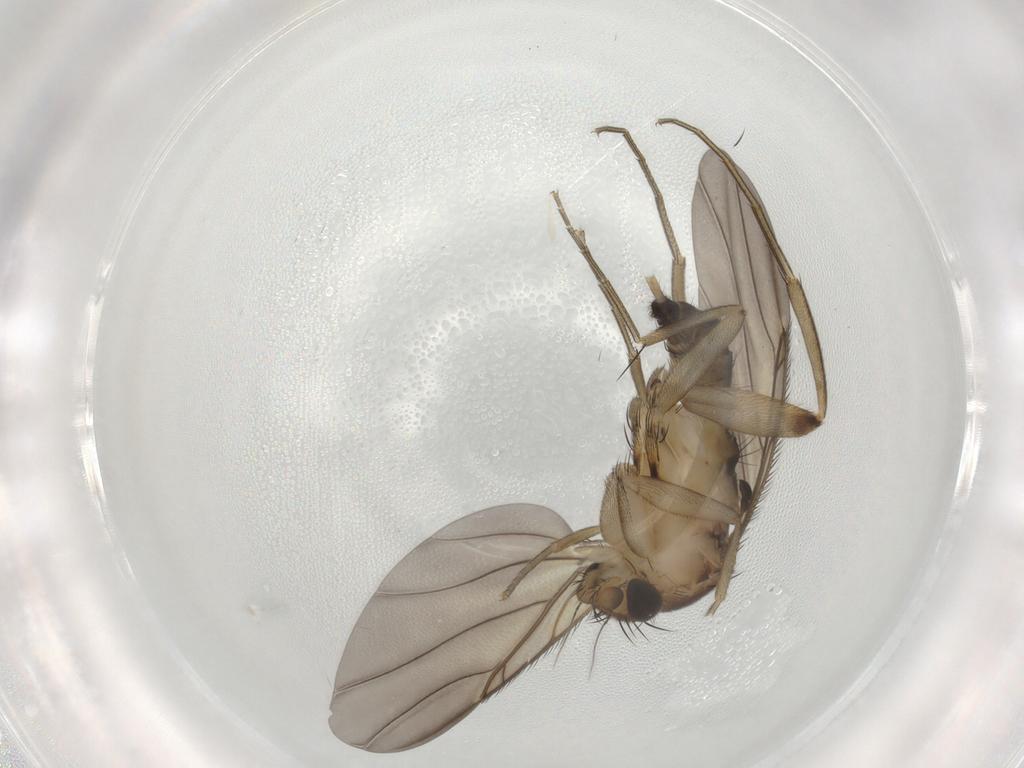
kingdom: Animalia
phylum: Arthropoda
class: Insecta
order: Diptera
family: Phoridae
